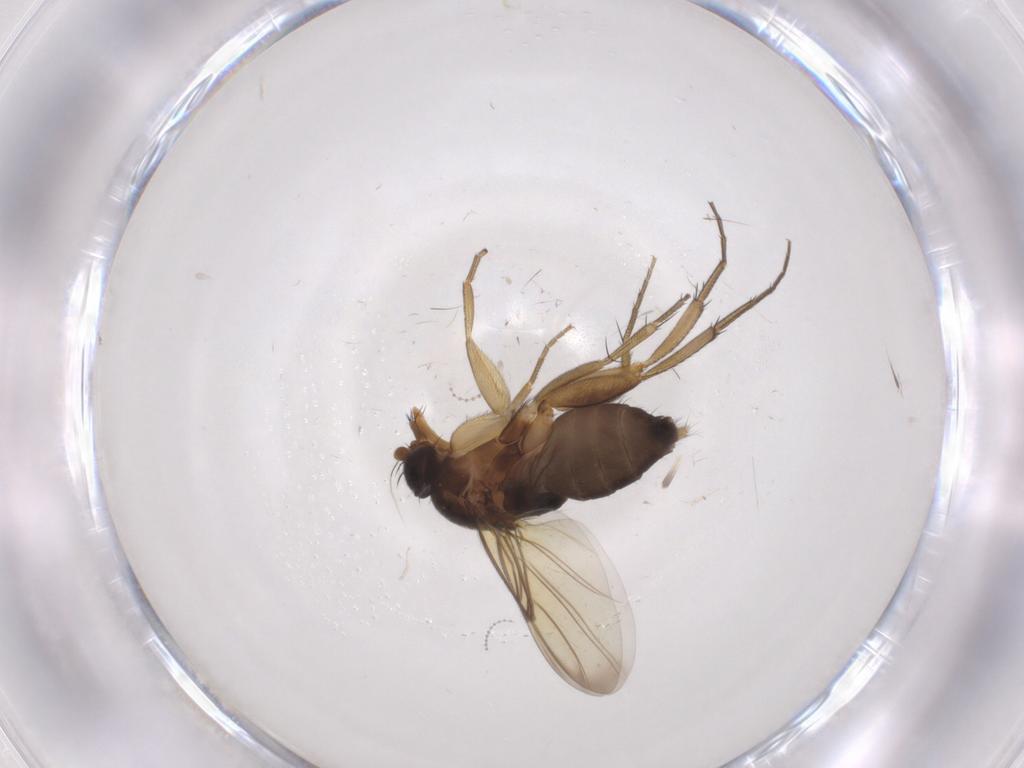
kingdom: Animalia
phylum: Arthropoda
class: Insecta
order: Diptera
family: Phoridae
